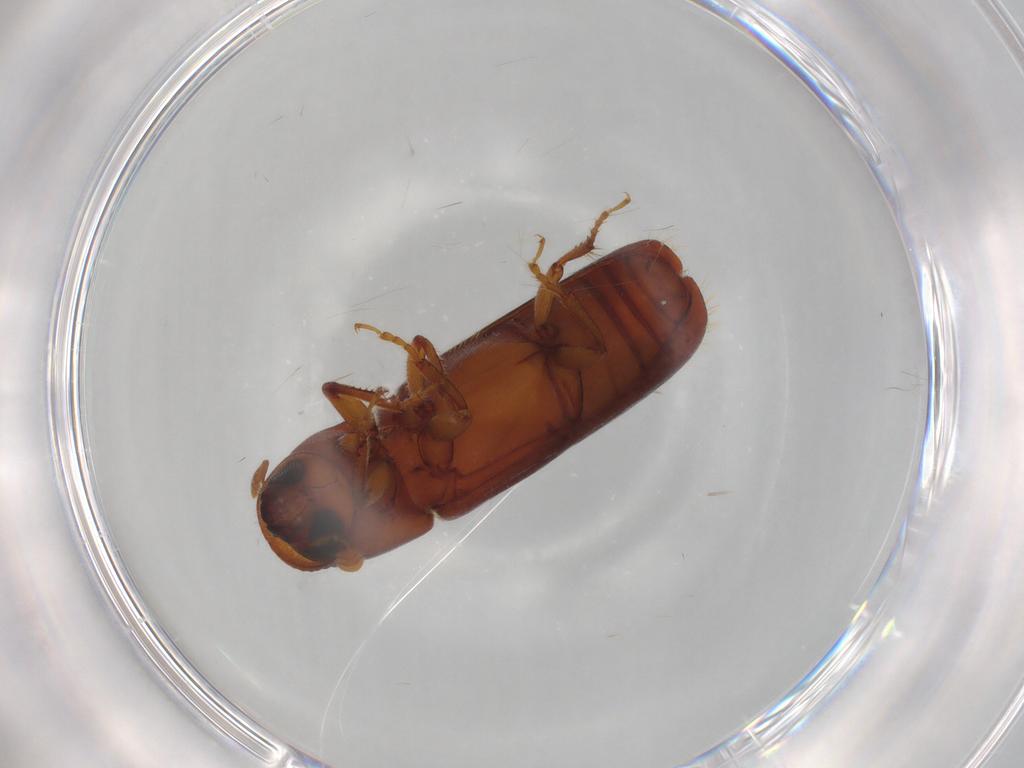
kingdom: Animalia
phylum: Arthropoda
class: Insecta
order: Coleoptera
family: Curculionidae
